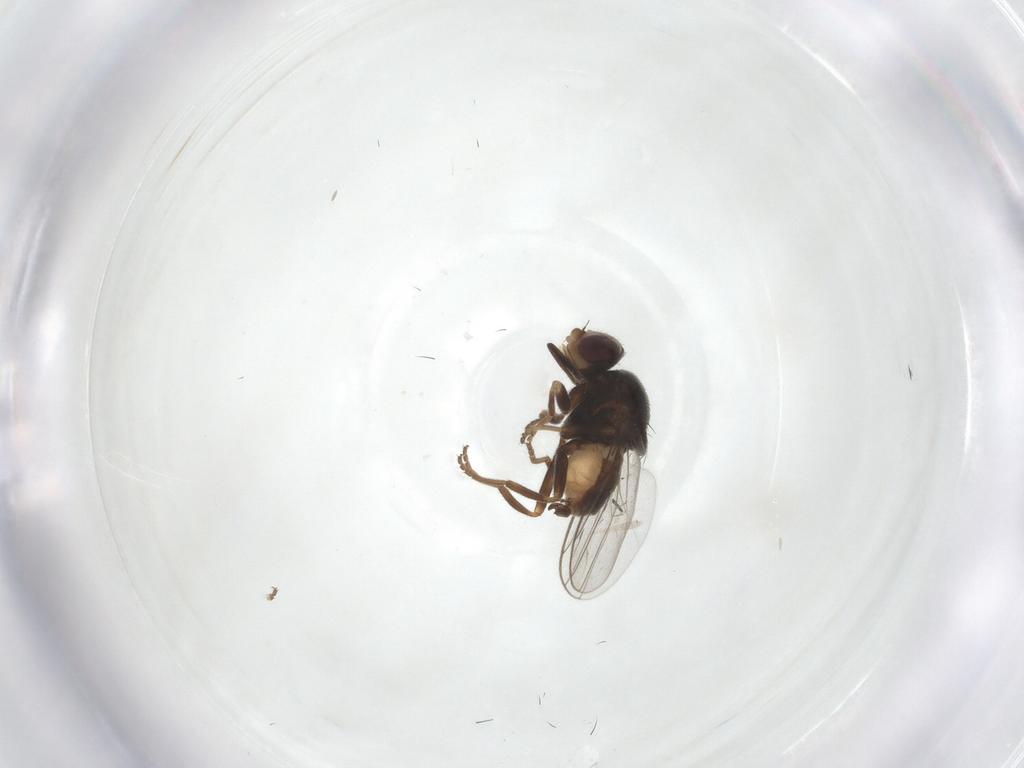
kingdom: Animalia
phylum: Arthropoda
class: Insecta
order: Diptera
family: Chloropidae
